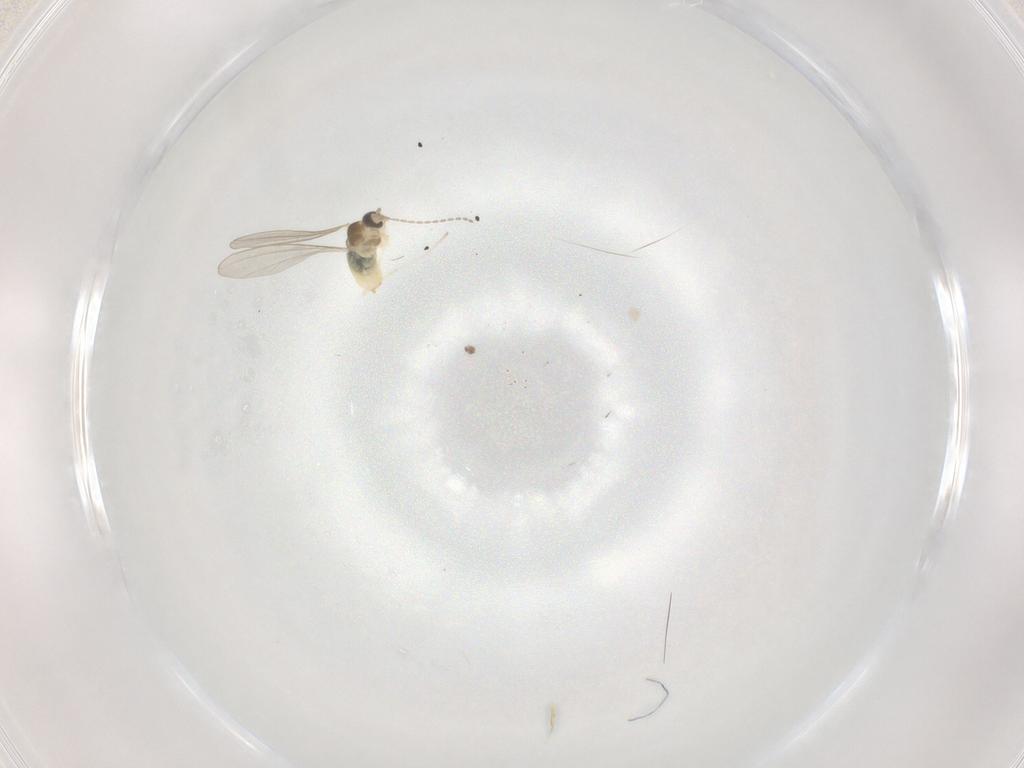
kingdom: Animalia
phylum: Arthropoda
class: Insecta
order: Diptera
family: Cecidomyiidae
